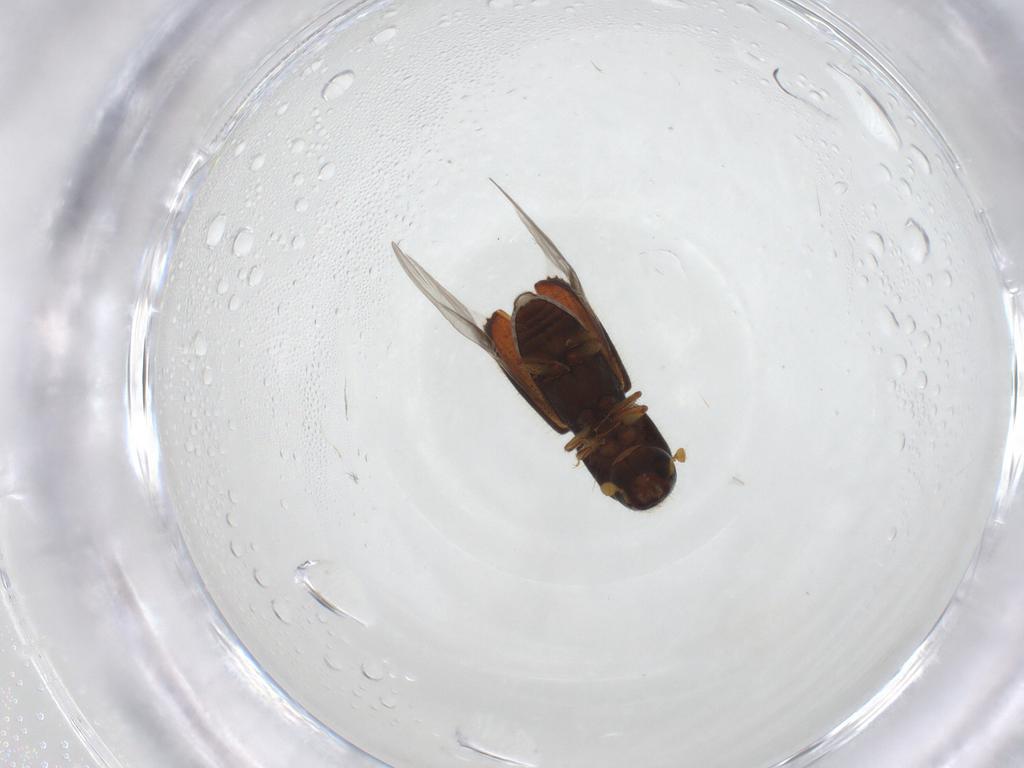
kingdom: Animalia
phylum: Arthropoda
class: Insecta
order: Coleoptera
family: Curculionidae
